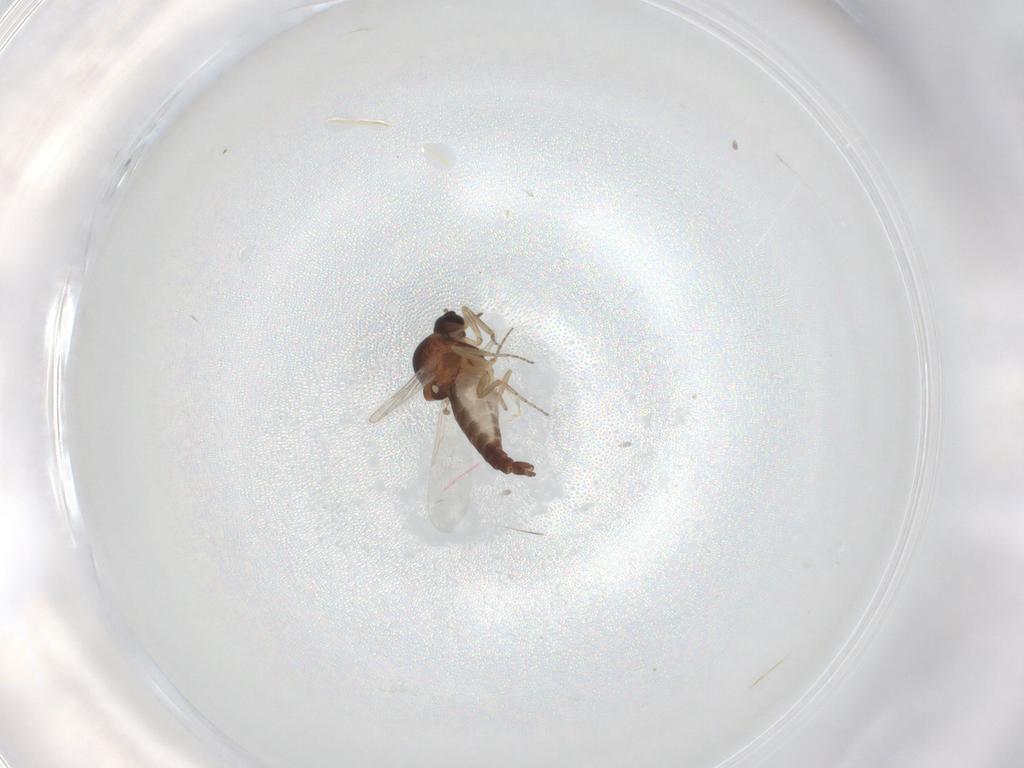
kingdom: Animalia
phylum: Arthropoda
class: Insecta
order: Diptera
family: Ceratopogonidae
